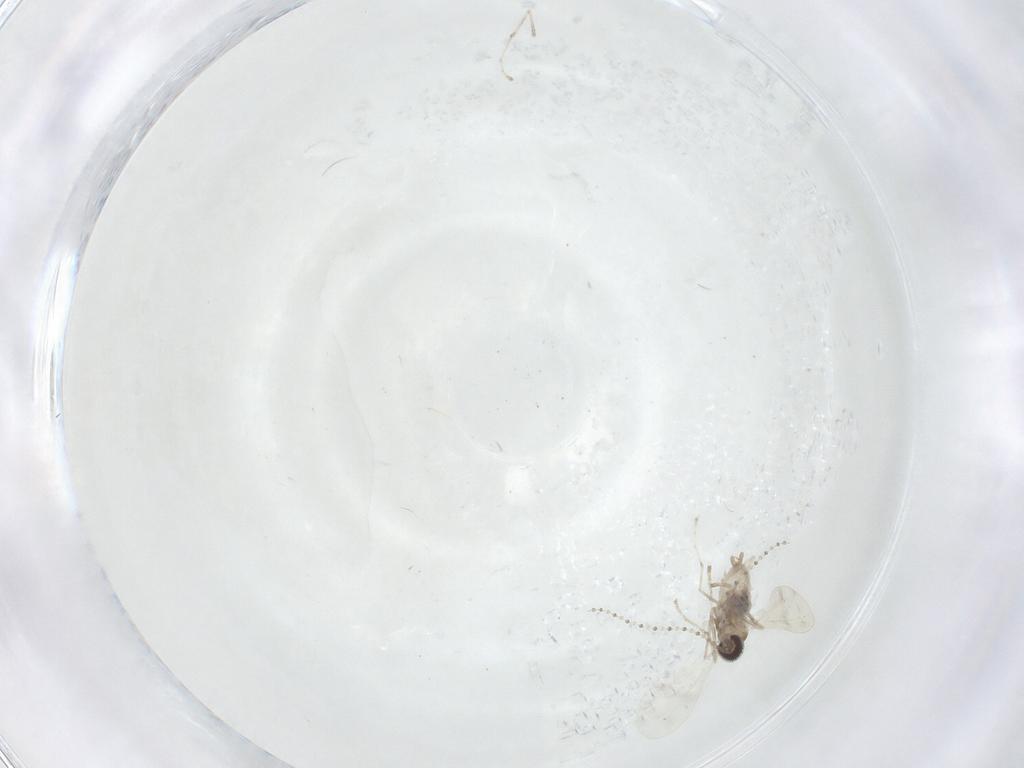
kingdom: Animalia
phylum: Arthropoda
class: Insecta
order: Diptera
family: Cecidomyiidae
